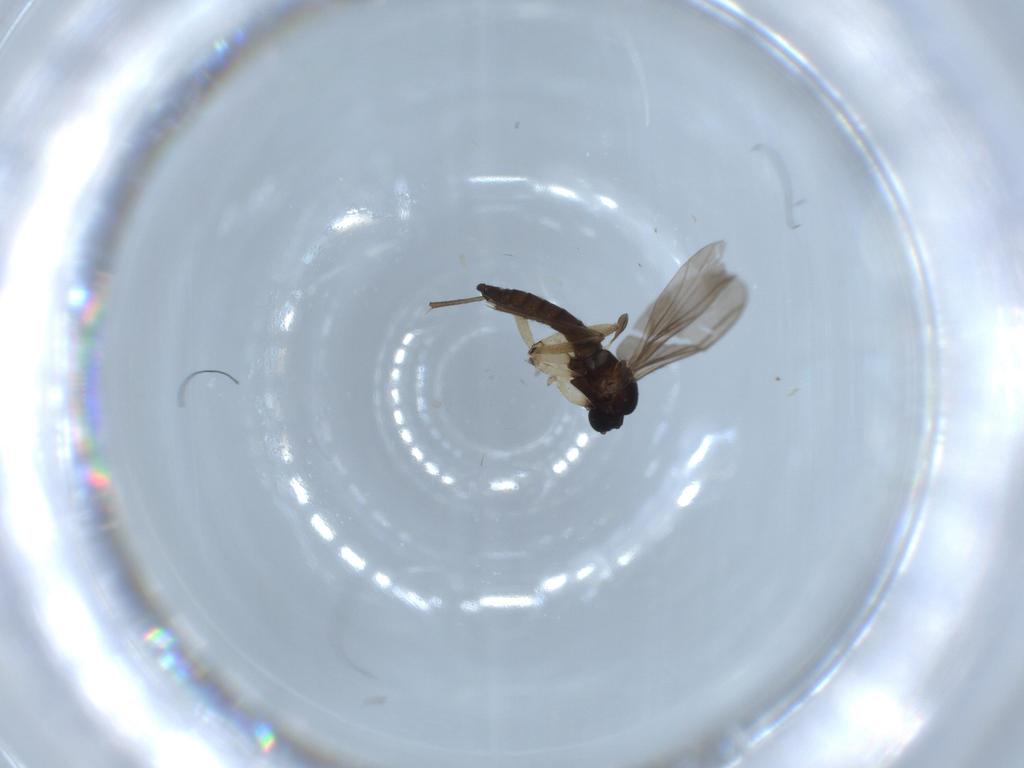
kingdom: Animalia
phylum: Arthropoda
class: Insecta
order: Diptera
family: Sciaridae
